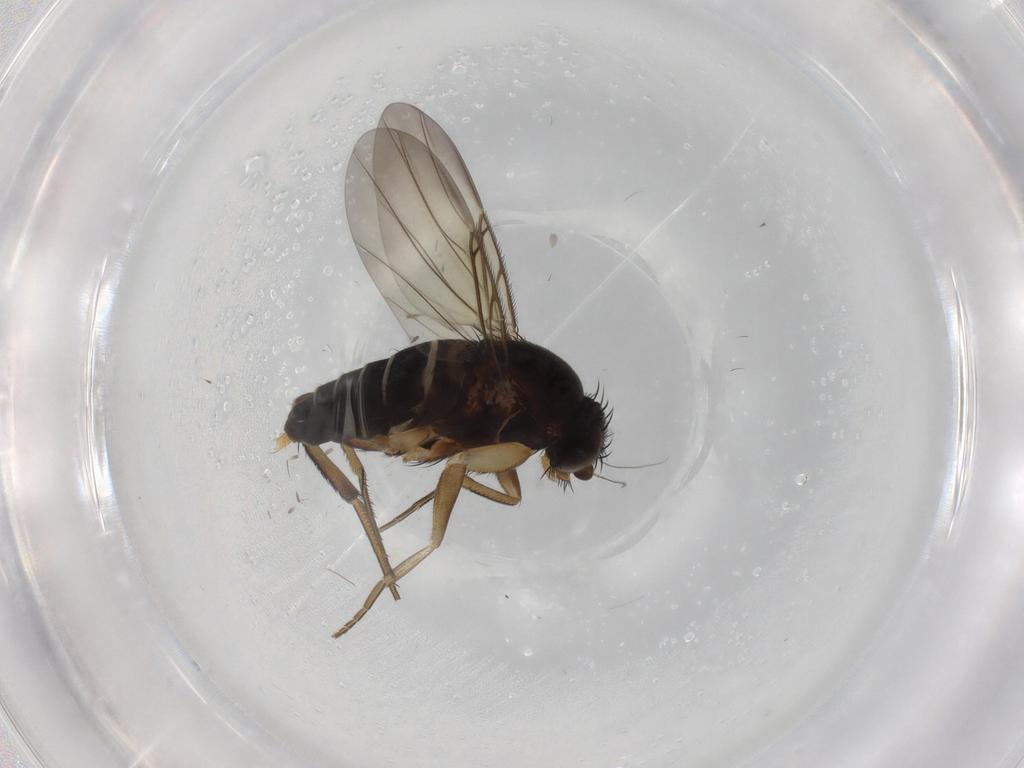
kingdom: Animalia
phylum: Arthropoda
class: Insecta
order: Diptera
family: Phoridae
